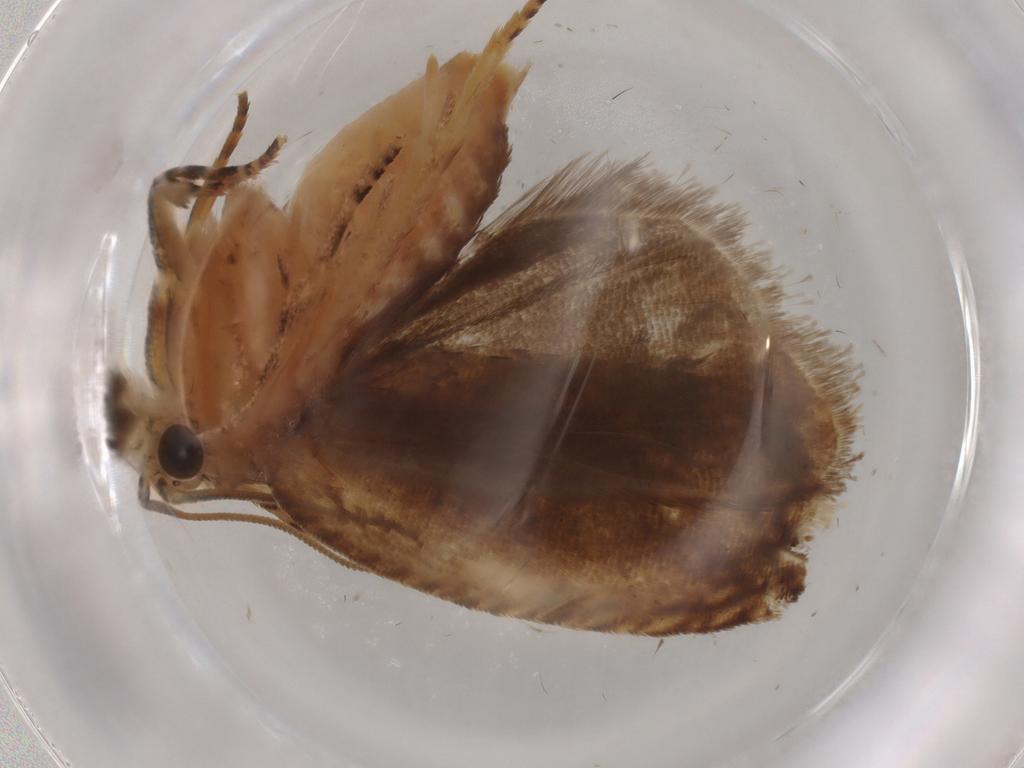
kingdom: Animalia
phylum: Arthropoda
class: Insecta
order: Lepidoptera
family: Tortricidae
